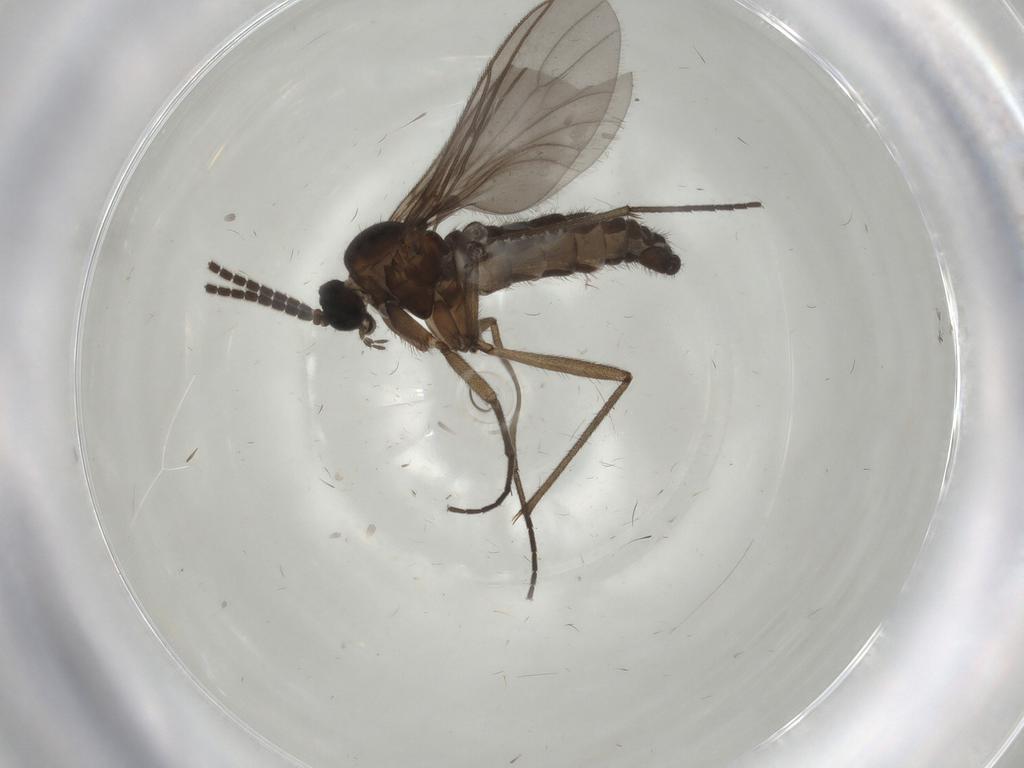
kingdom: Animalia
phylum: Arthropoda
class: Insecta
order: Diptera
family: Sciaridae
